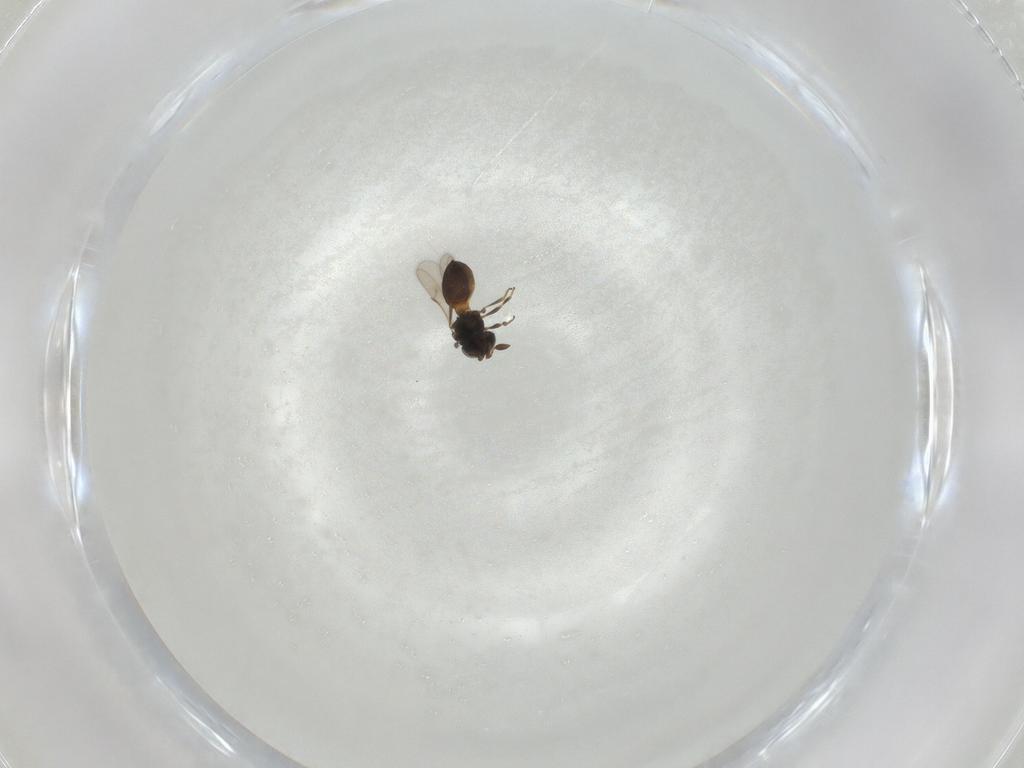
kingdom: Animalia
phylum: Arthropoda
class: Insecta
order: Hymenoptera
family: Scelionidae
